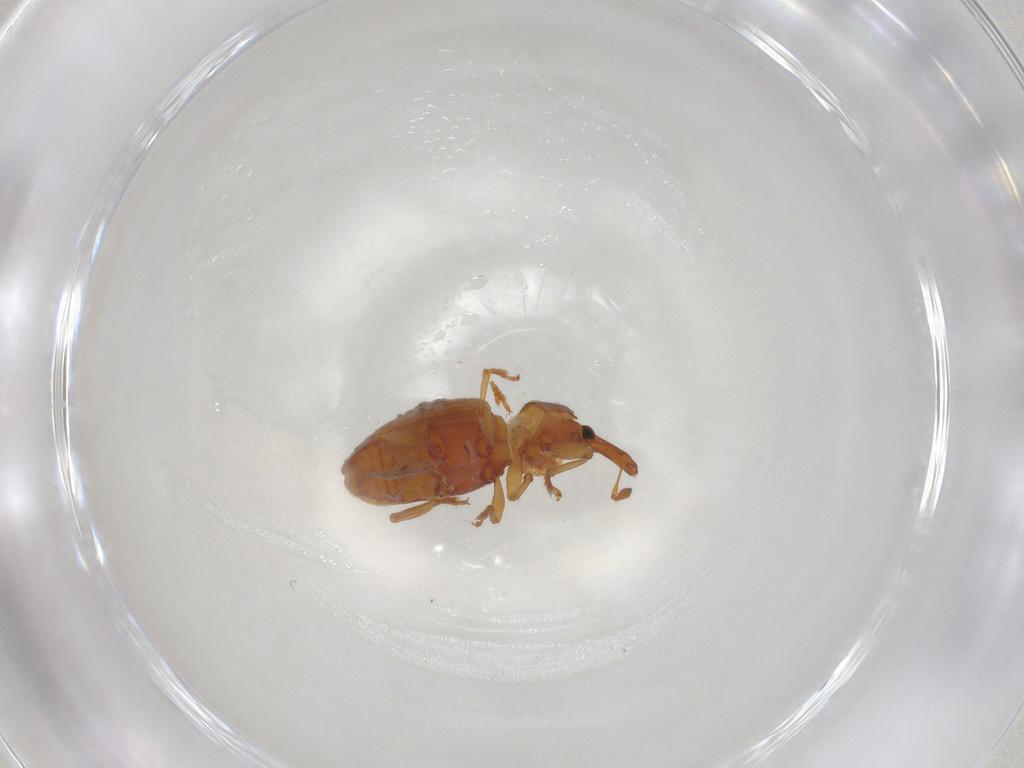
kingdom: Animalia
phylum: Arthropoda
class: Insecta
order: Coleoptera
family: Curculionidae
